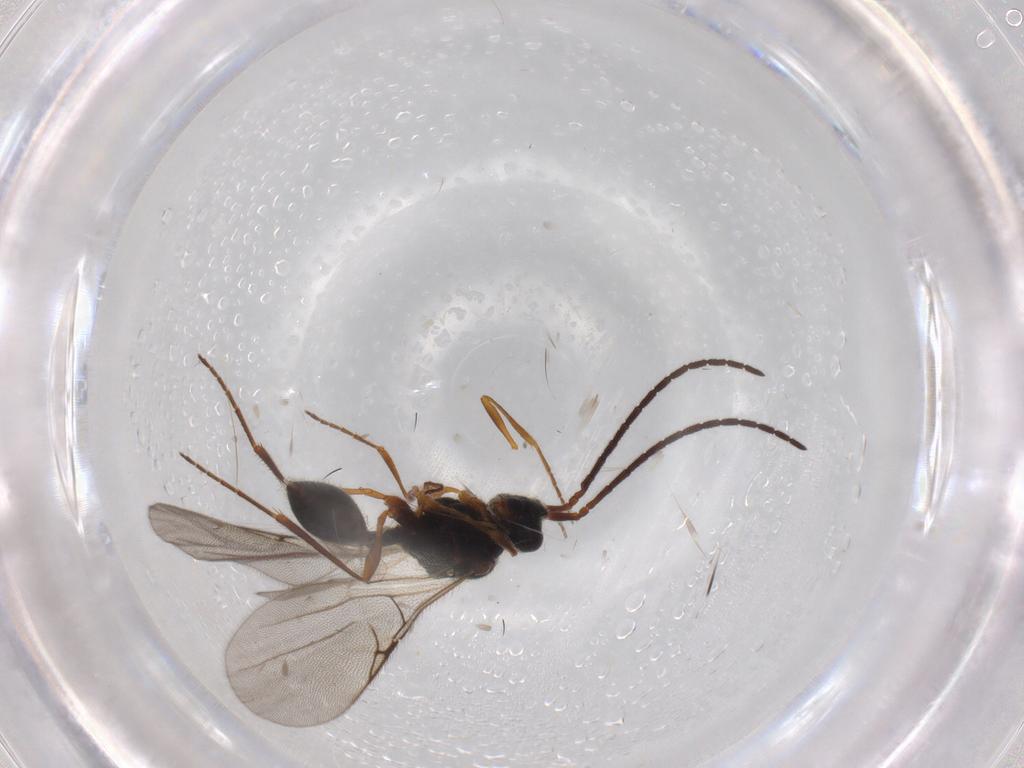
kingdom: Animalia
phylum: Arthropoda
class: Insecta
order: Hymenoptera
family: Diapriidae
